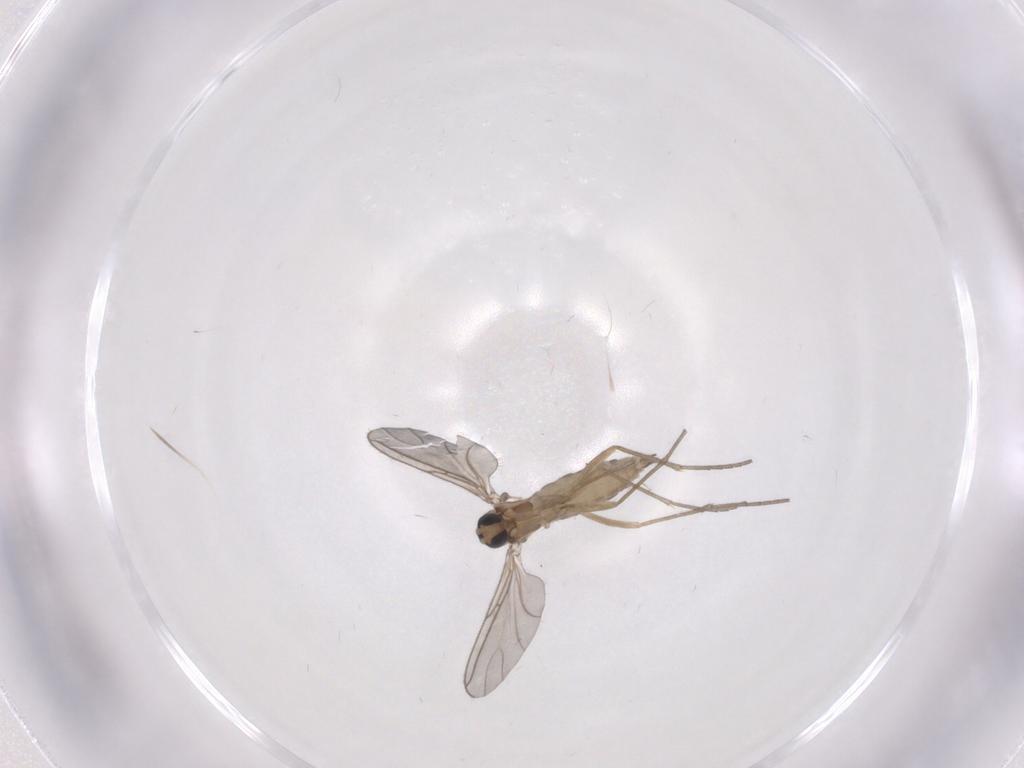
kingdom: Animalia
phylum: Arthropoda
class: Insecta
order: Diptera
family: Sciaridae
